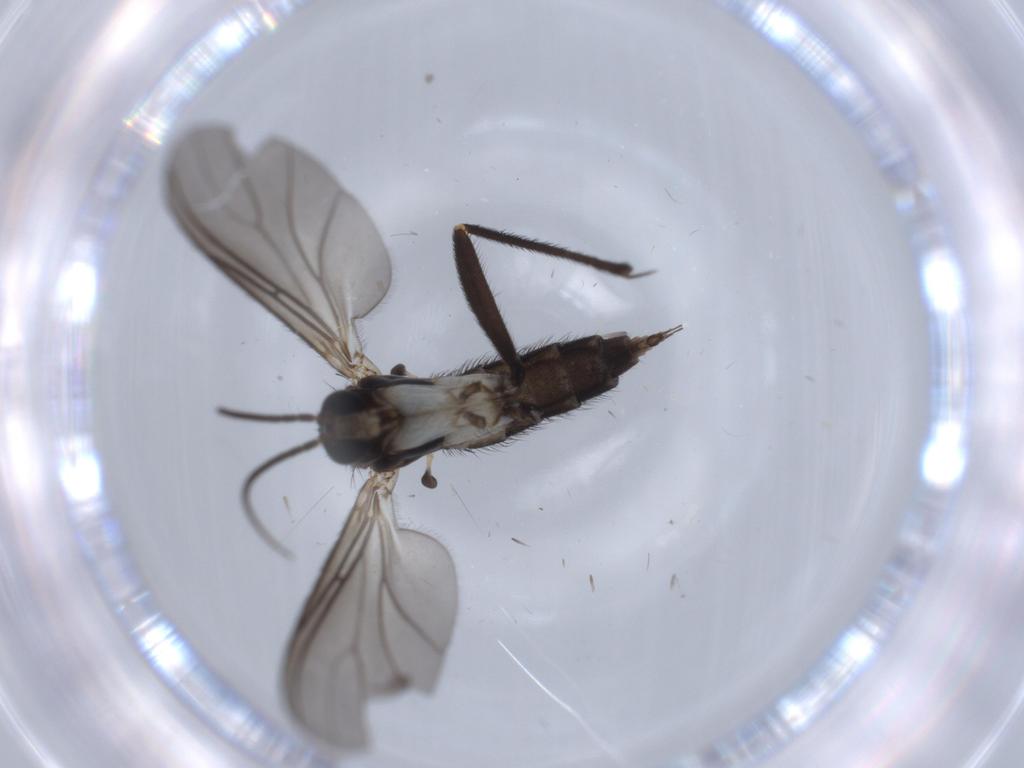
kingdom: Animalia
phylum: Arthropoda
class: Insecta
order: Diptera
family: Sciaridae
